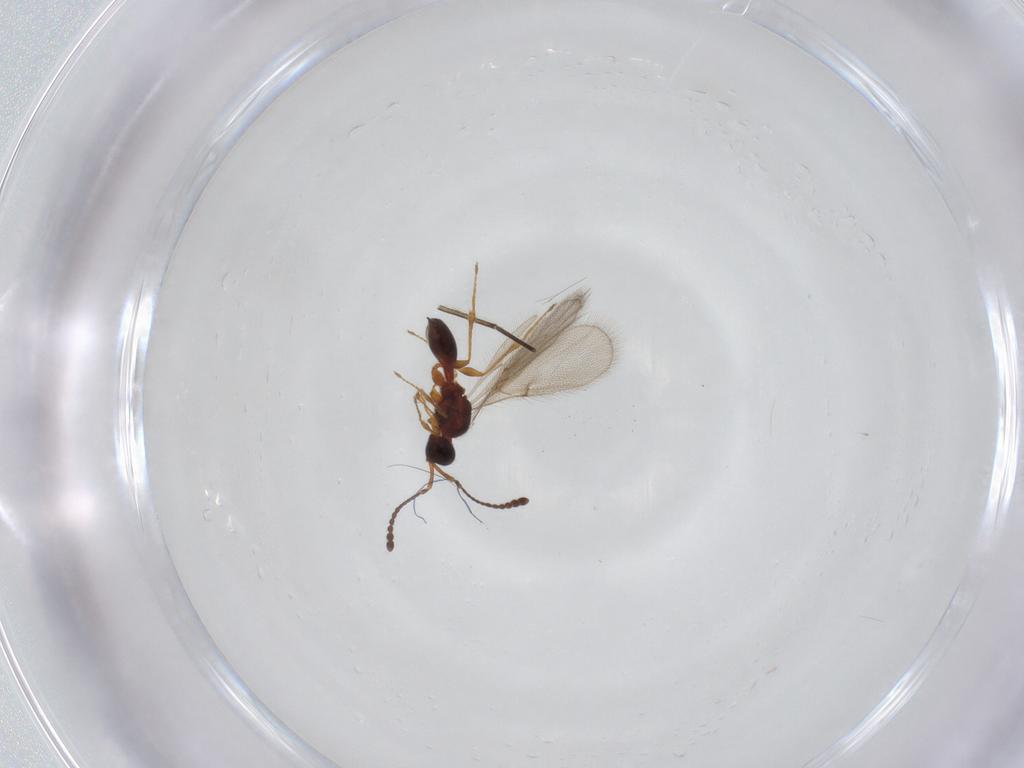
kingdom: Animalia
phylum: Arthropoda
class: Insecta
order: Hymenoptera
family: Diapriidae
